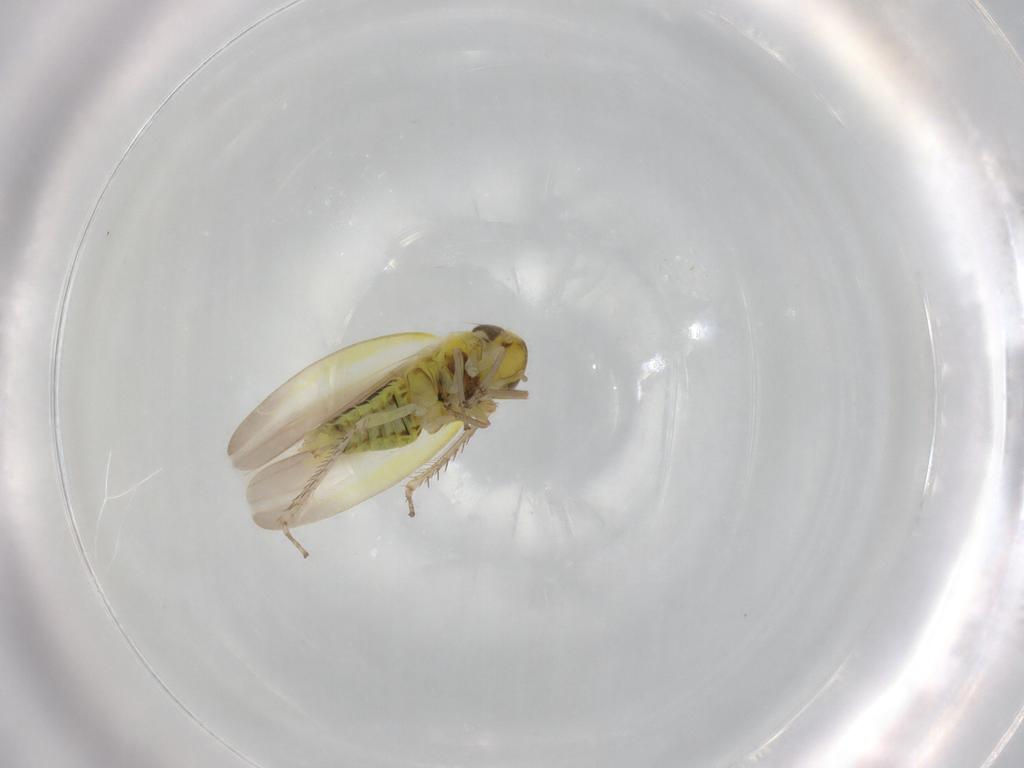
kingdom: Animalia
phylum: Arthropoda
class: Insecta
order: Hemiptera
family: Cicadellidae
